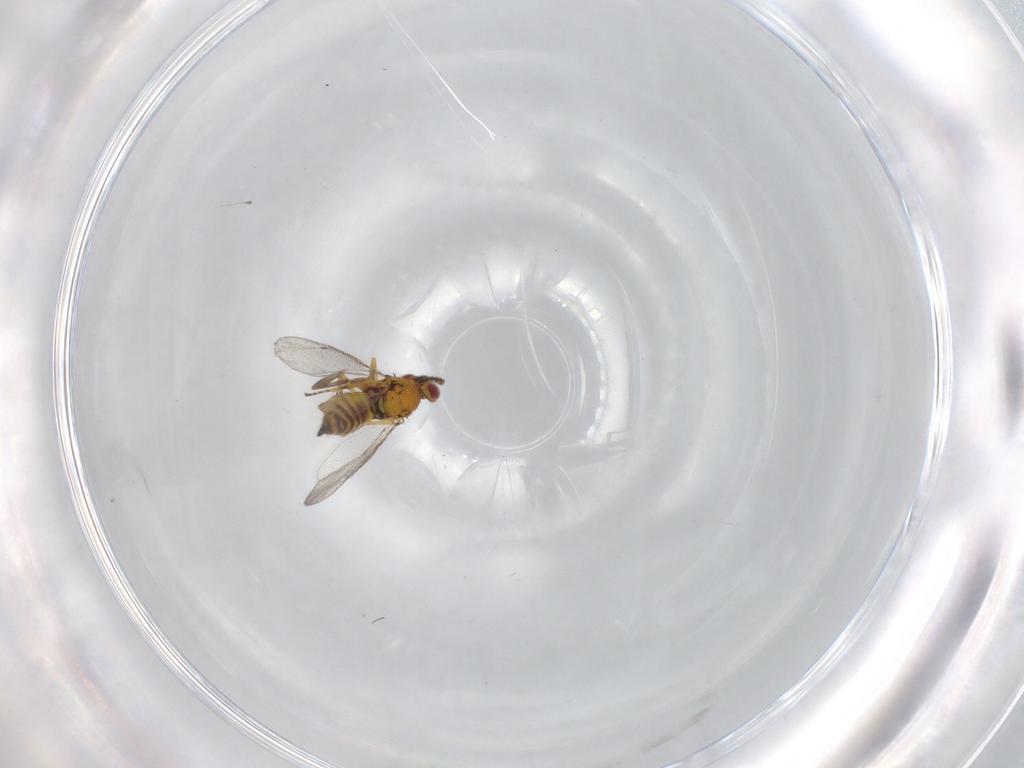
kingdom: Animalia
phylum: Arthropoda
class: Insecta
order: Hymenoptera
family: Eulophidae
